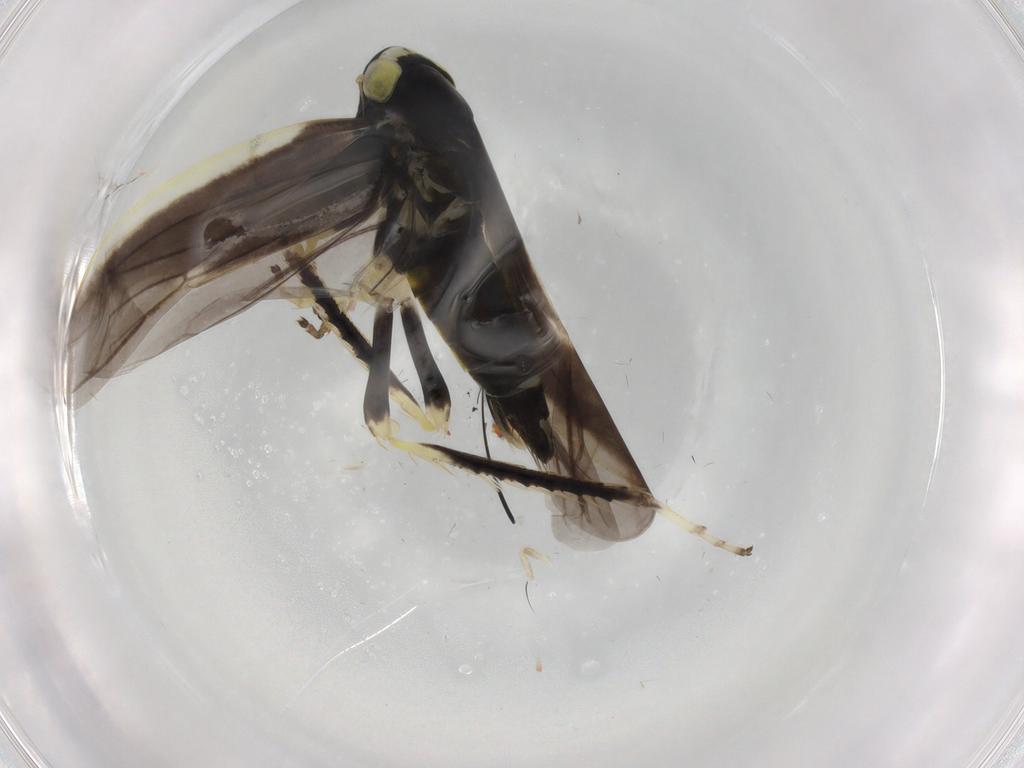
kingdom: Animalia
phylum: Arthropoda
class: Insecta
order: Hemiptera
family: Cicadellidae
